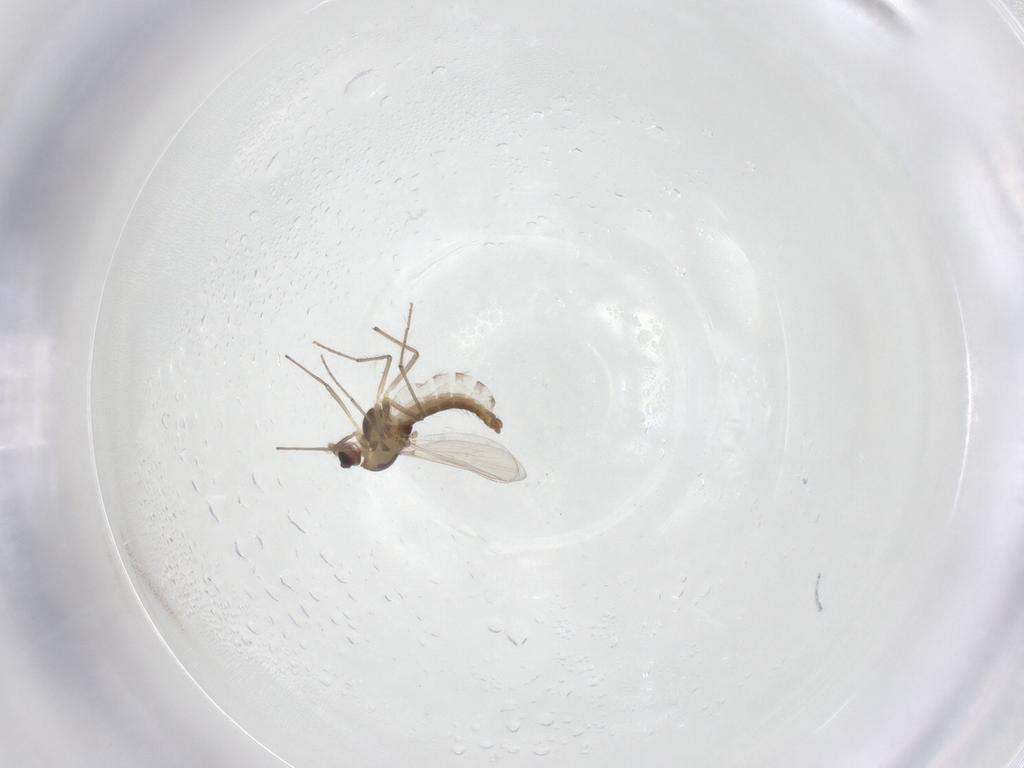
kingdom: Animalia
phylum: Arthropoda
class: Insecta
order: Diptera
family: Chironomidae
